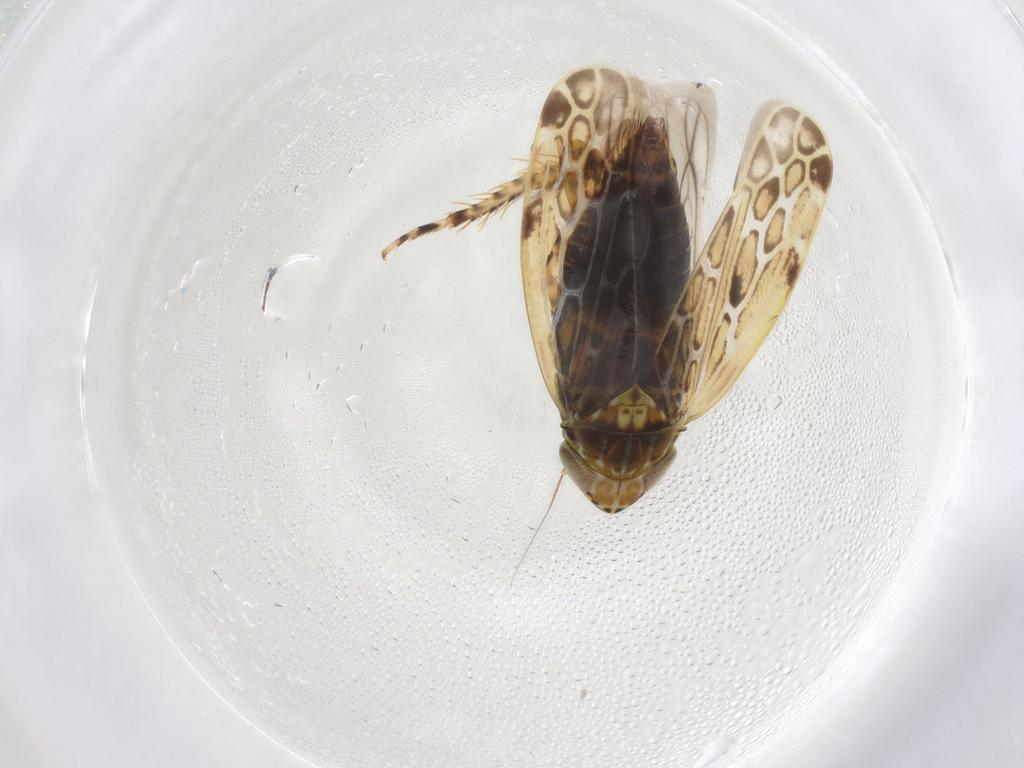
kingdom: Animalia
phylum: Arthropoda
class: Insecta
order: Hemiptera
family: Cicadellidae
